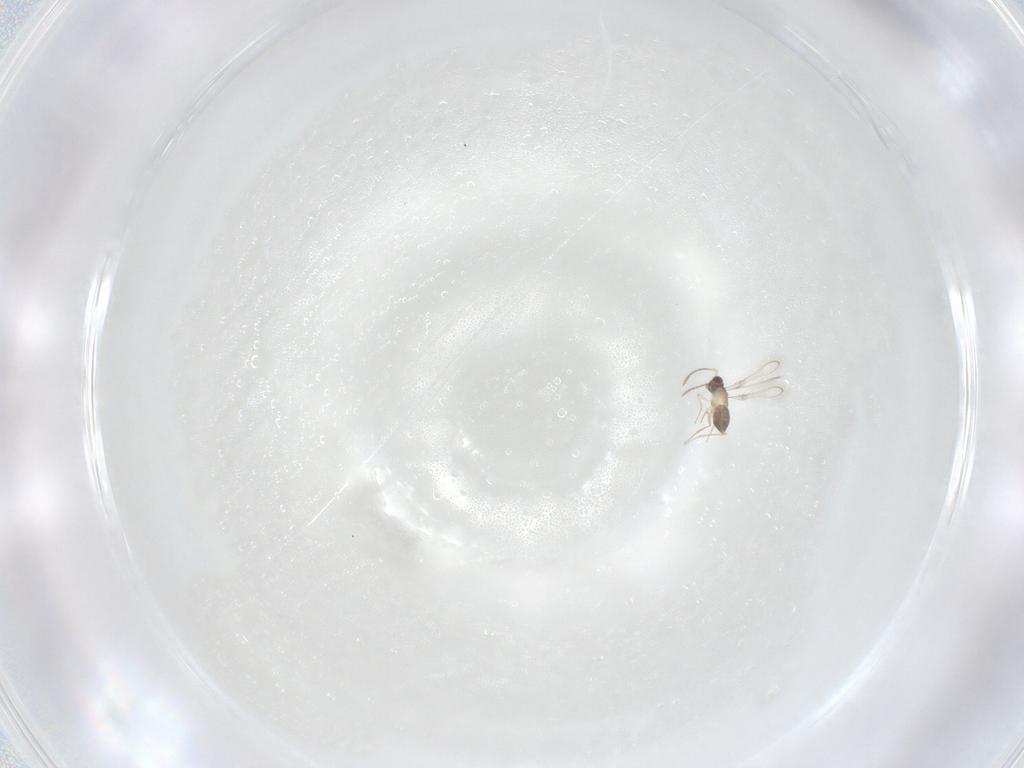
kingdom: Animalia
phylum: Arthropoda
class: Insecta
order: Hymenoptera
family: Mymaridae
